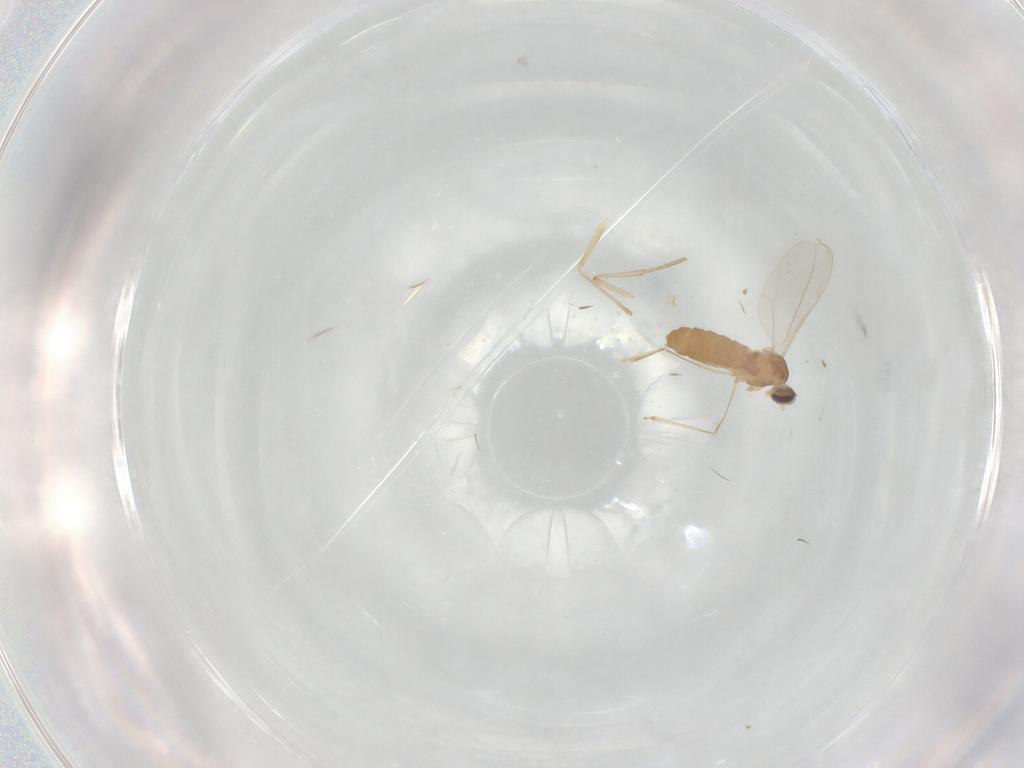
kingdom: Animalia
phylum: Arthropoda
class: Insecta
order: Diptera
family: Cecidomyiidae
